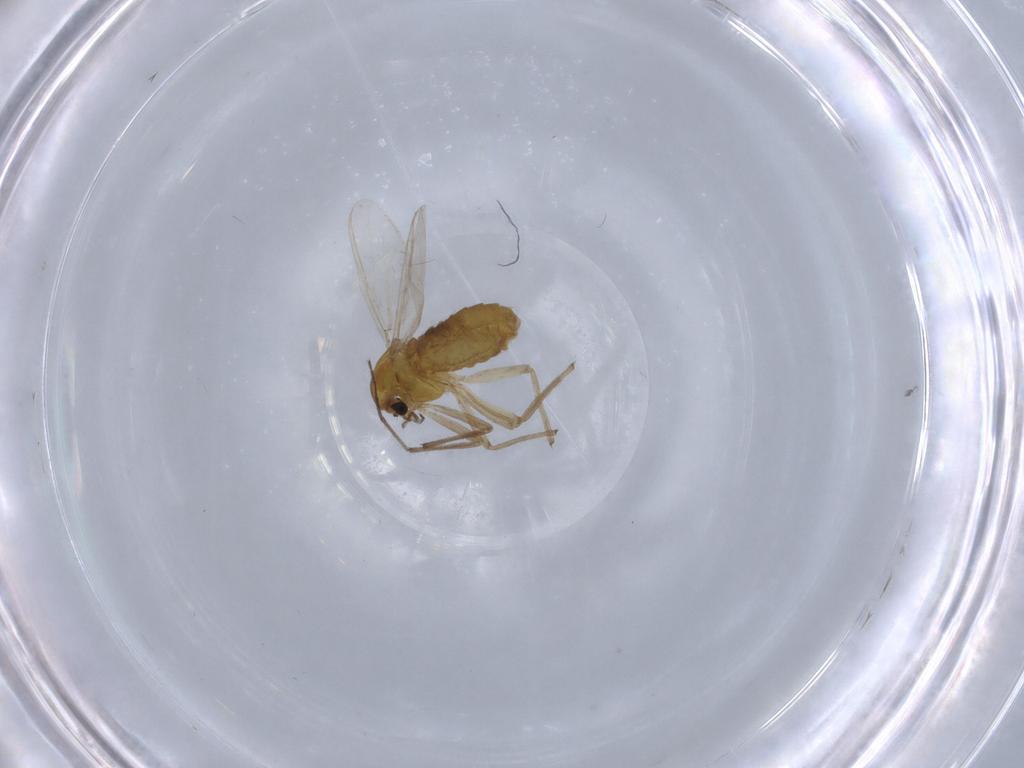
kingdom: Animalia
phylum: Arthropoda
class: Insecta
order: Diptera
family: Chironomidae
